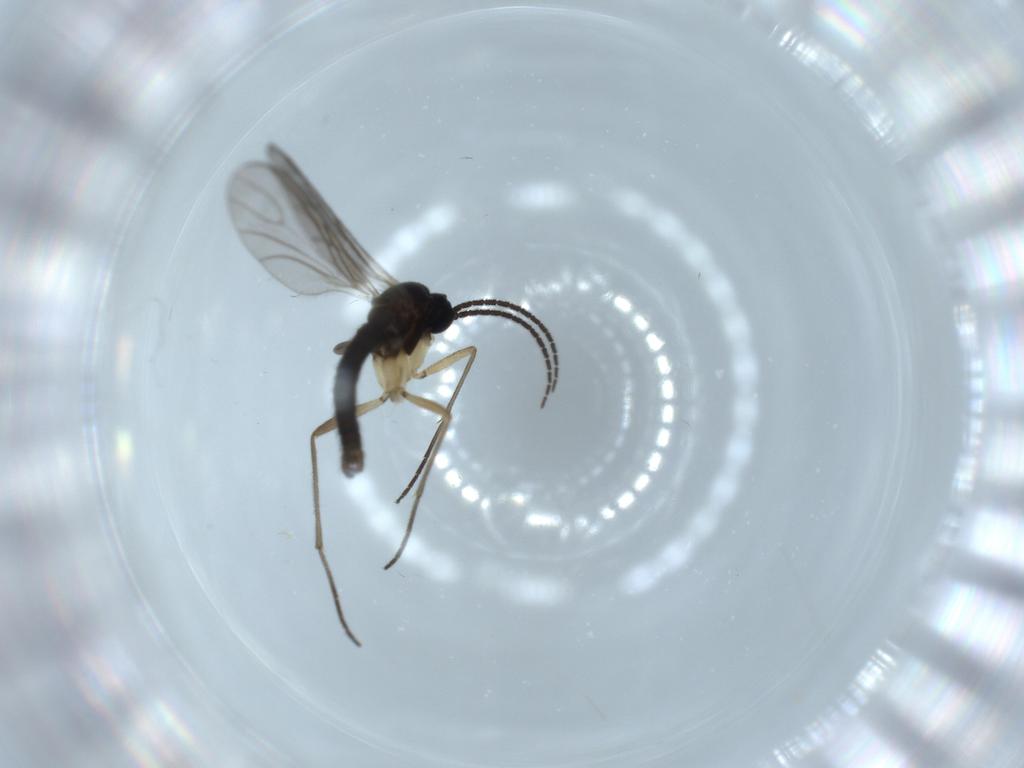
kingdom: Animalia
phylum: Arthropoda
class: Insecta
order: Diptera
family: Sciaridae
